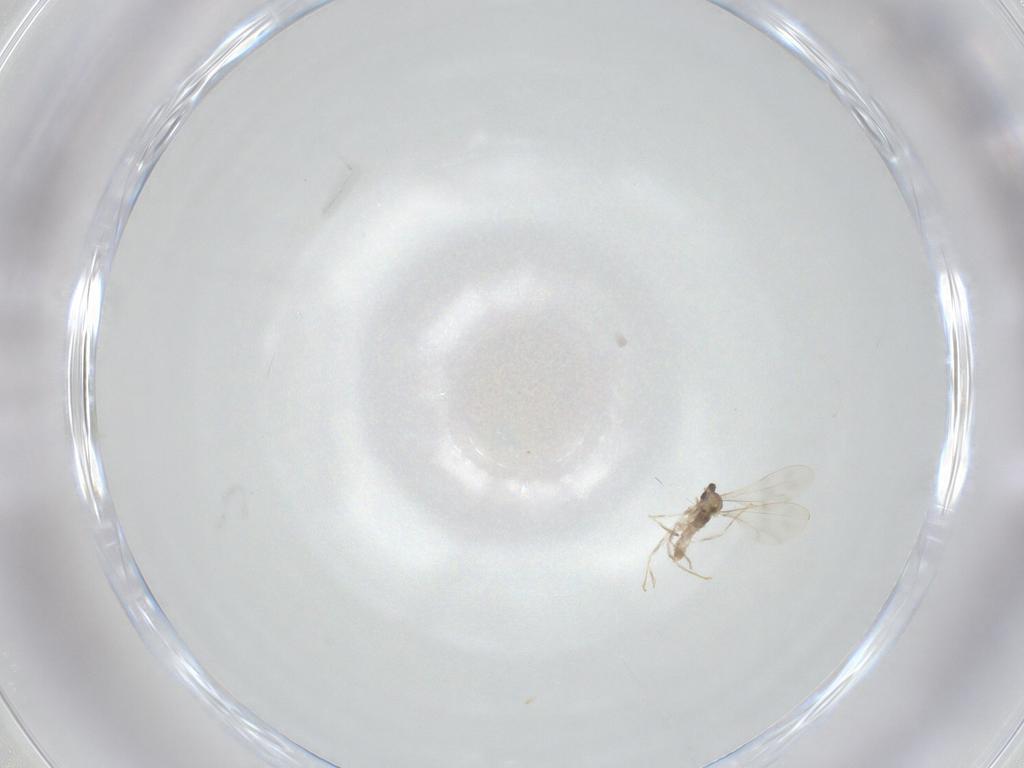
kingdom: Animalia
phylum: Arthropoda
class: Insecta
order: Diptera
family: Cecidomyiidae
